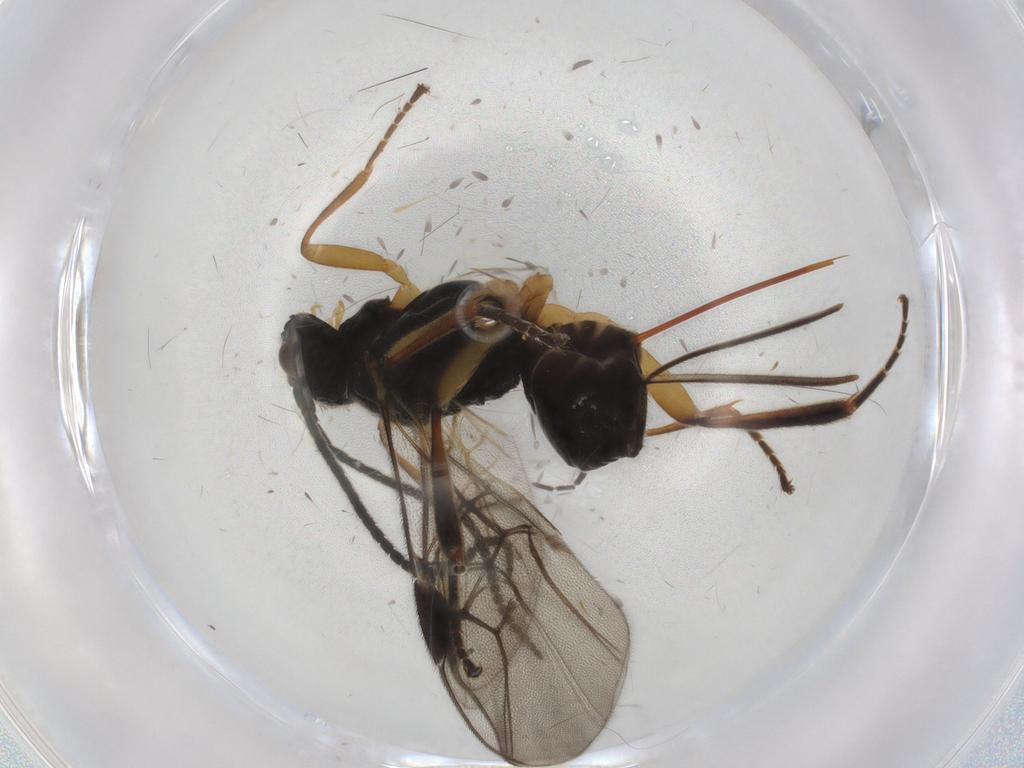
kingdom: Animalia
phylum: Arthropoda
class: Insecta
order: Hymenoptera
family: Braconidae
